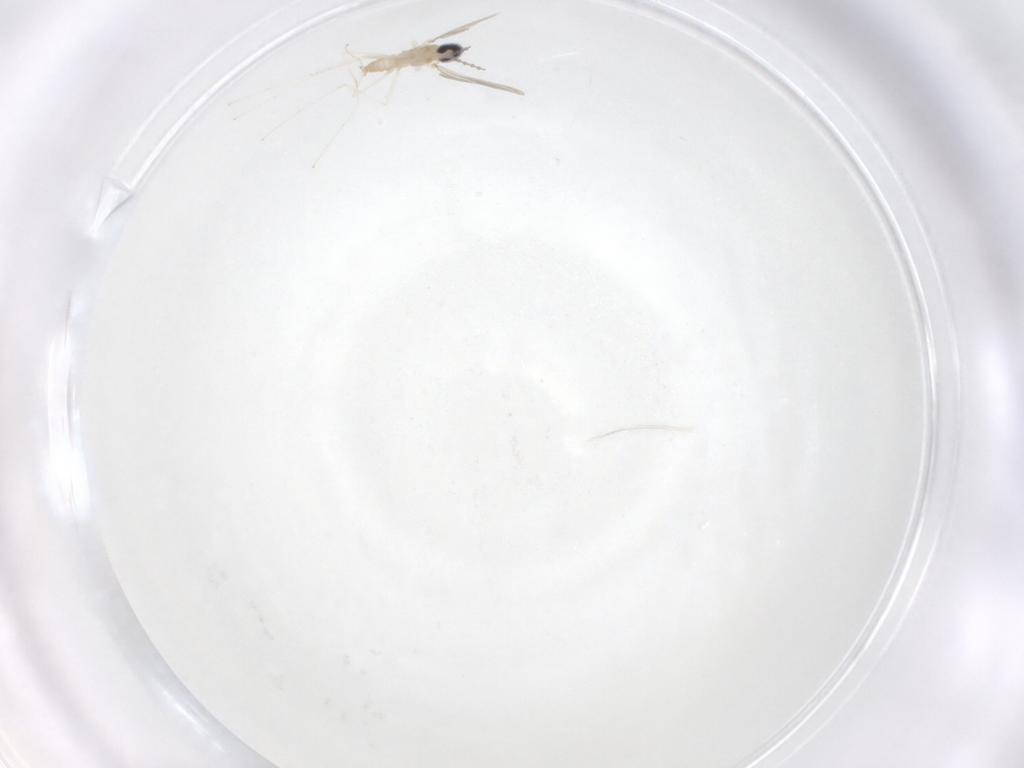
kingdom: Animalia
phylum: Arthropoda
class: Insecta
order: Diptera
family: Cecidomyiidae
